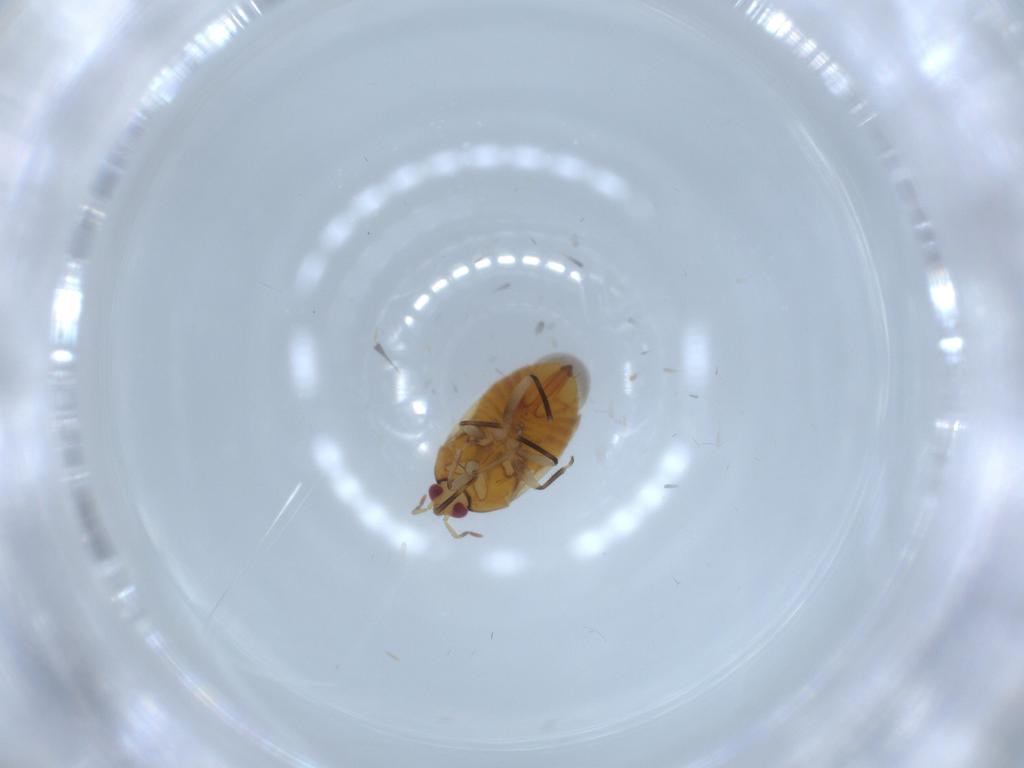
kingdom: Animalia
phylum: Arthropoda
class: Insecta
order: Hemiptera
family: Anthocoridae
